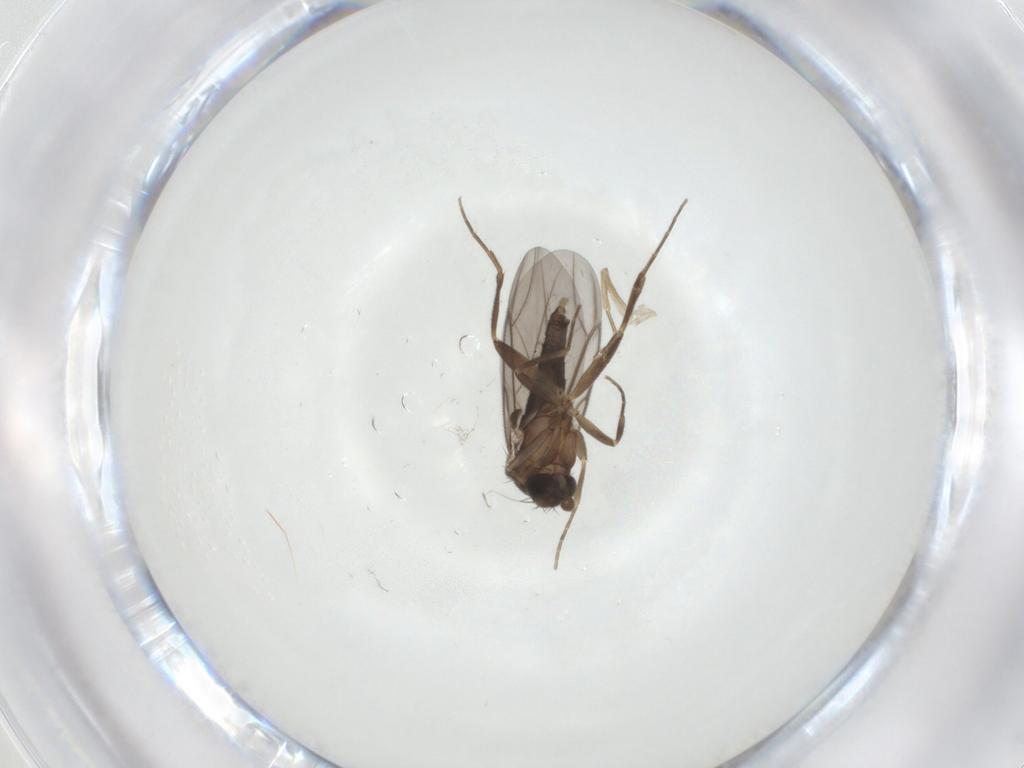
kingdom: Animalia
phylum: Arthropoda
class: Insecta
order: Diptera
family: Phoridae
